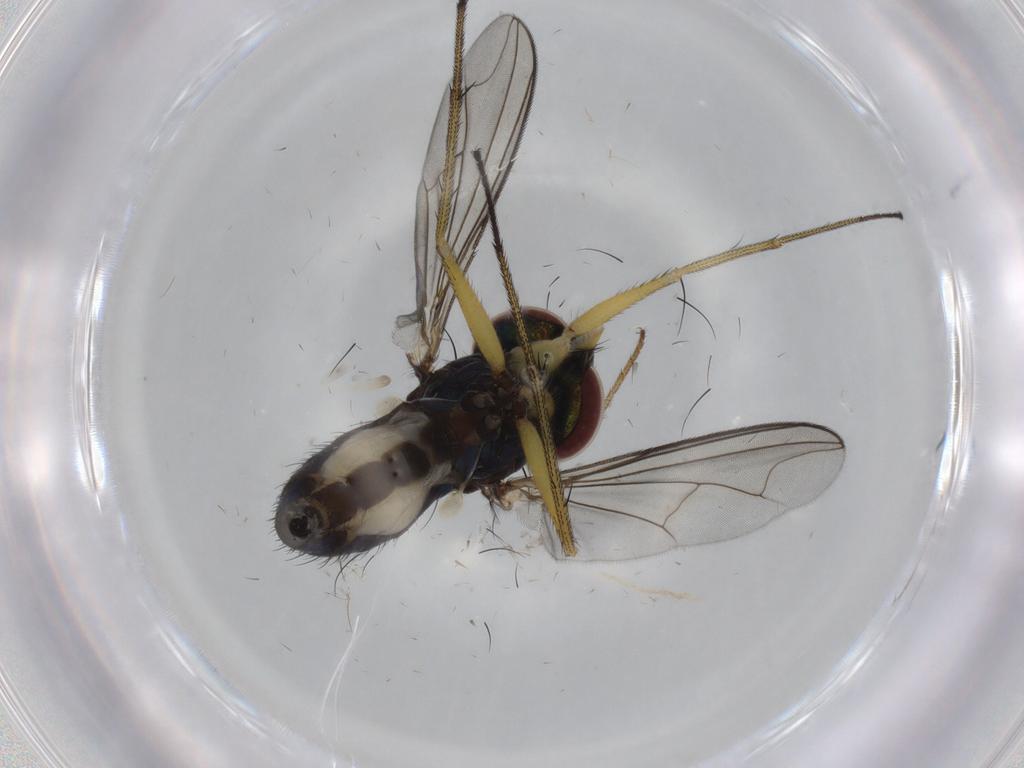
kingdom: Animalia
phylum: Arthropoda
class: Insecta
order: Diptera
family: Dolichopodidae
